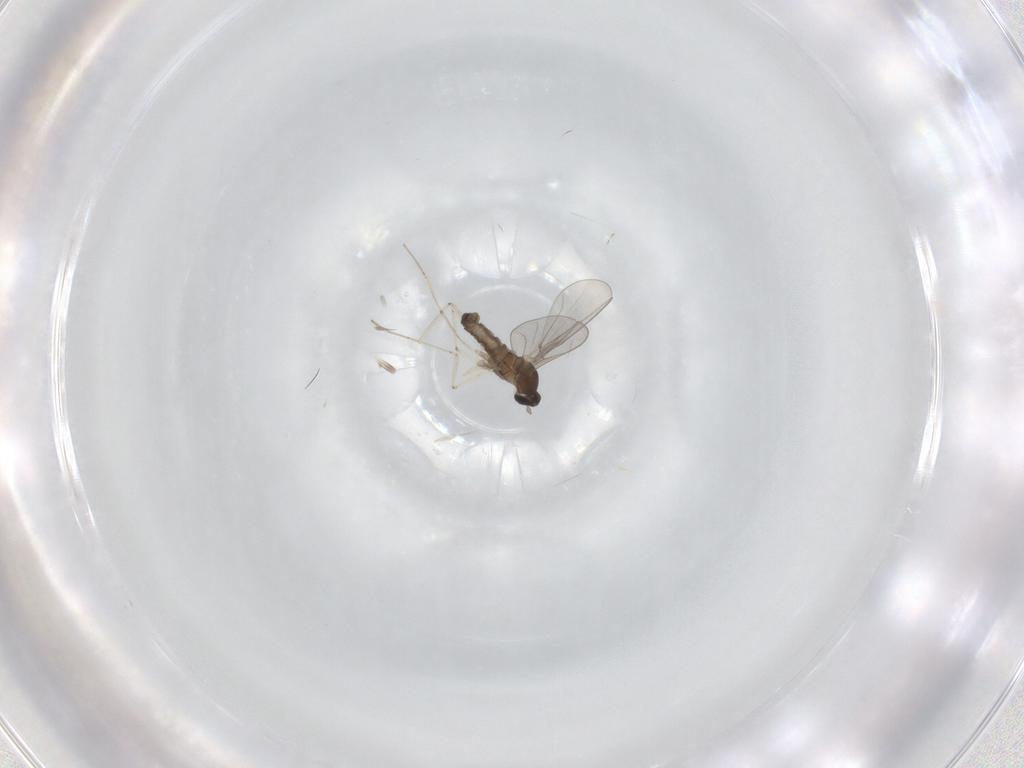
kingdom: Animalia
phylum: Arthropoda
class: Insecta
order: Diptera
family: Cecidomyiidae
